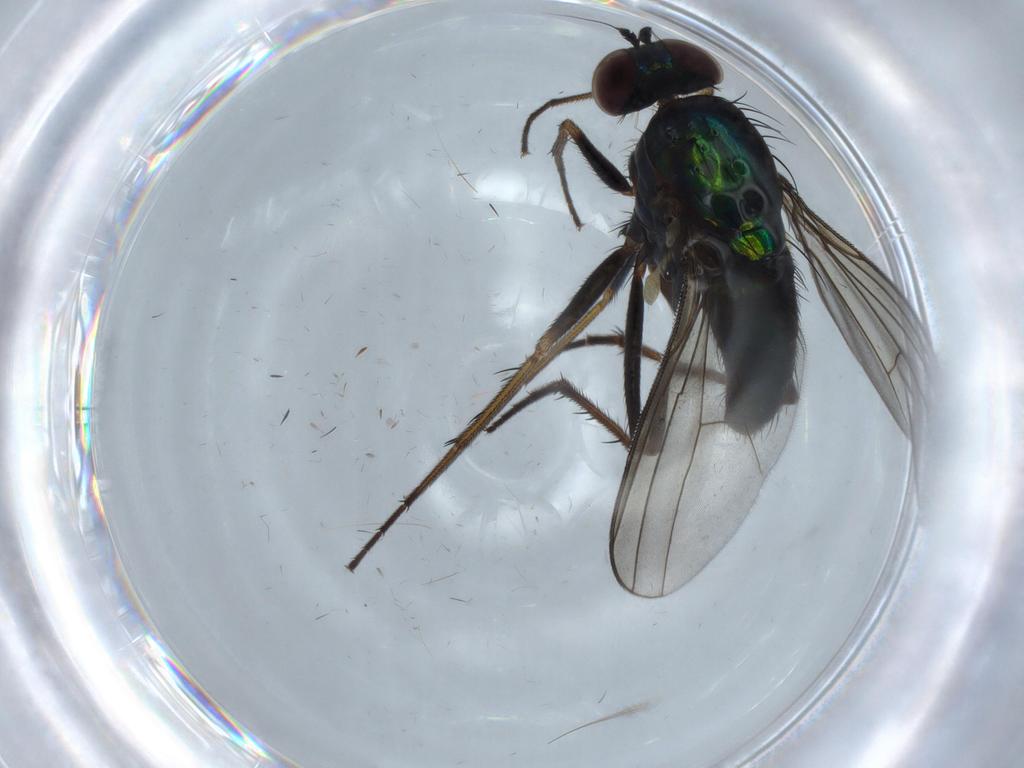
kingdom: Animalia
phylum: Arthropoda
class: Insecta
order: Diptera
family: Dolichopodidae
